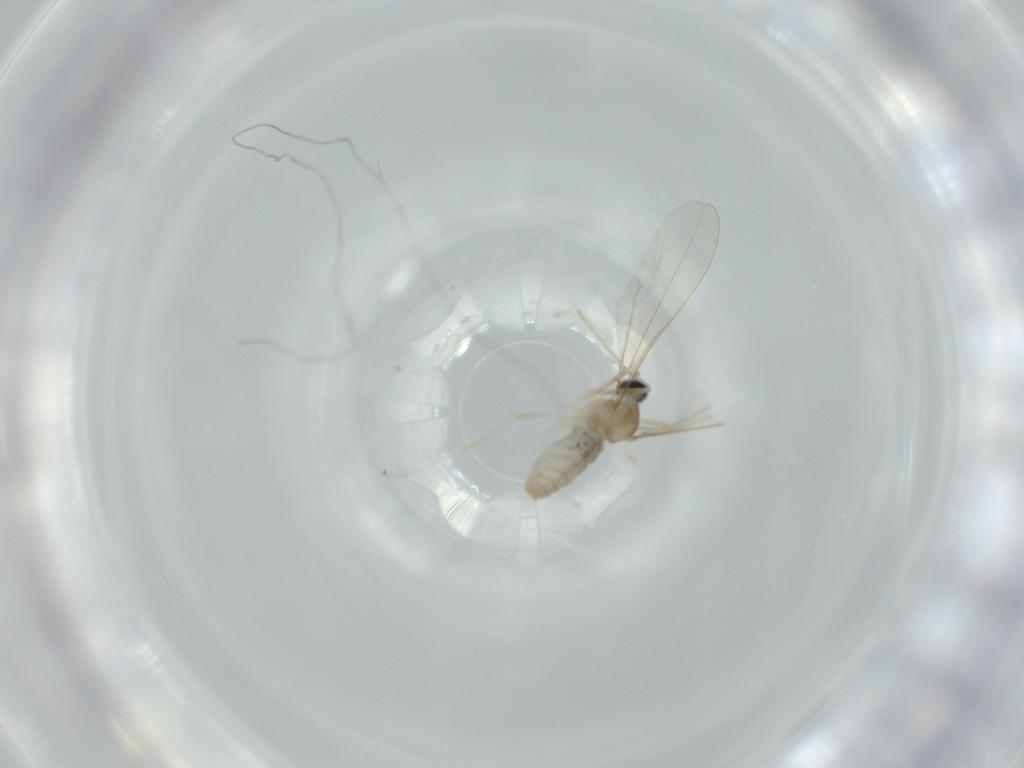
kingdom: Animalia
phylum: Arthropoda
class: Insecta
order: Diptera
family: Cecidomyiidae
